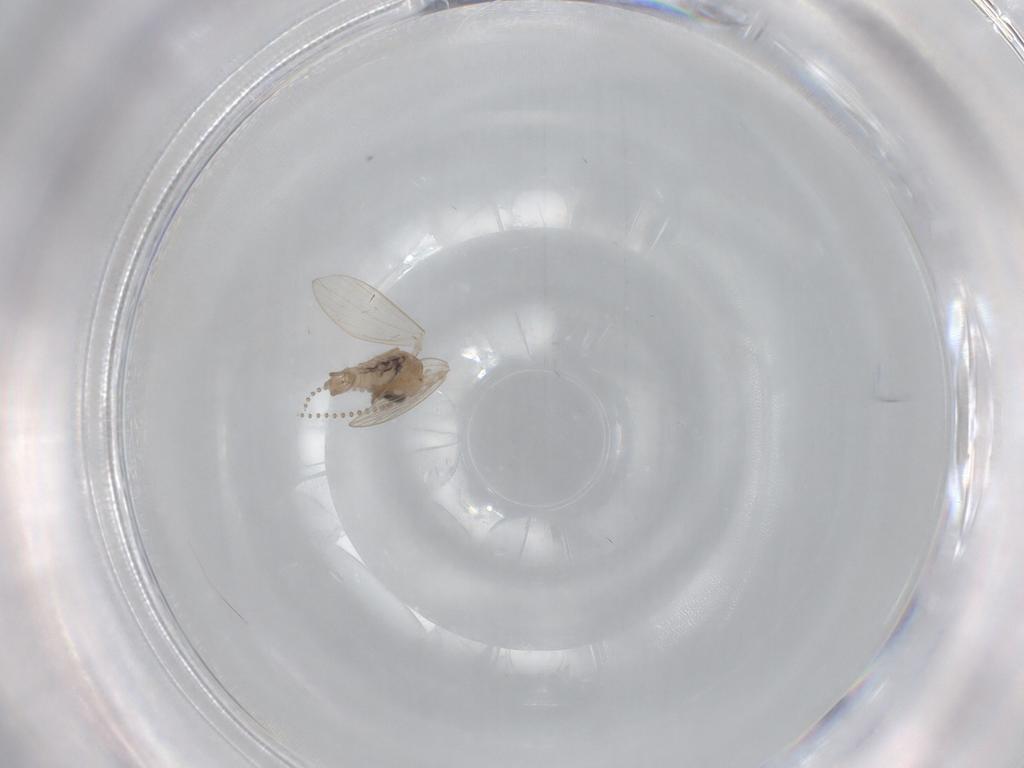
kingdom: Animalia
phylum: Arthropoda
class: Insecta
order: Diptera
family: Psychodidae
